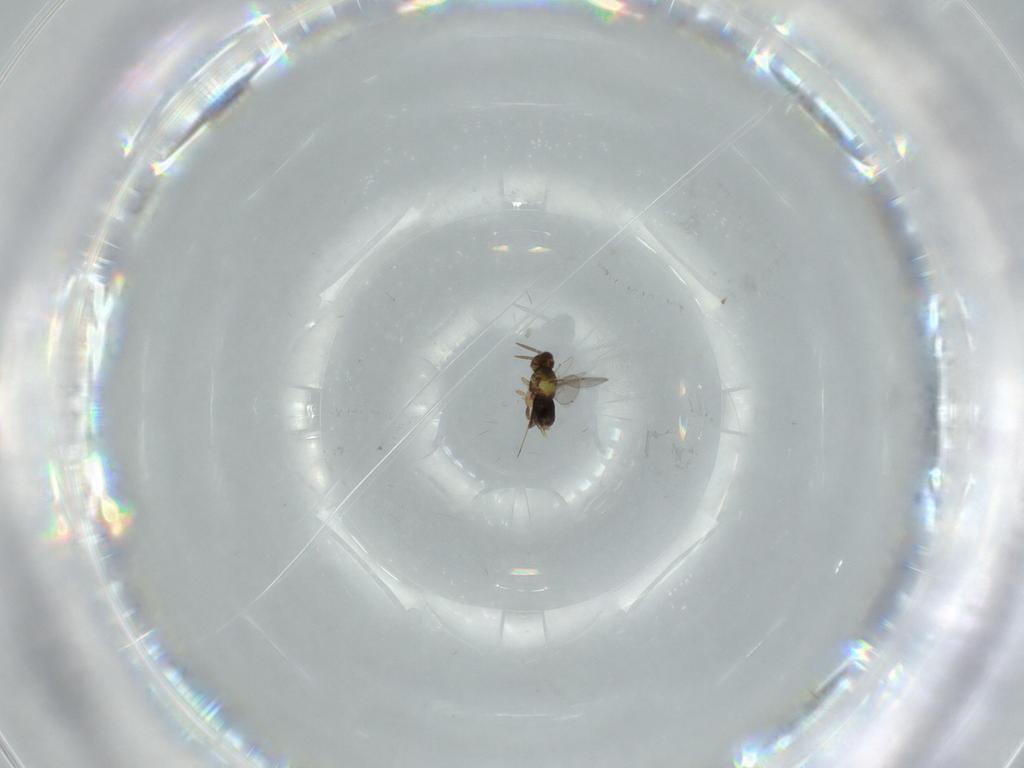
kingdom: Animalia
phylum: Arthropoda
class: Insecta
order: Hymenoptera
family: Aphelinidae
